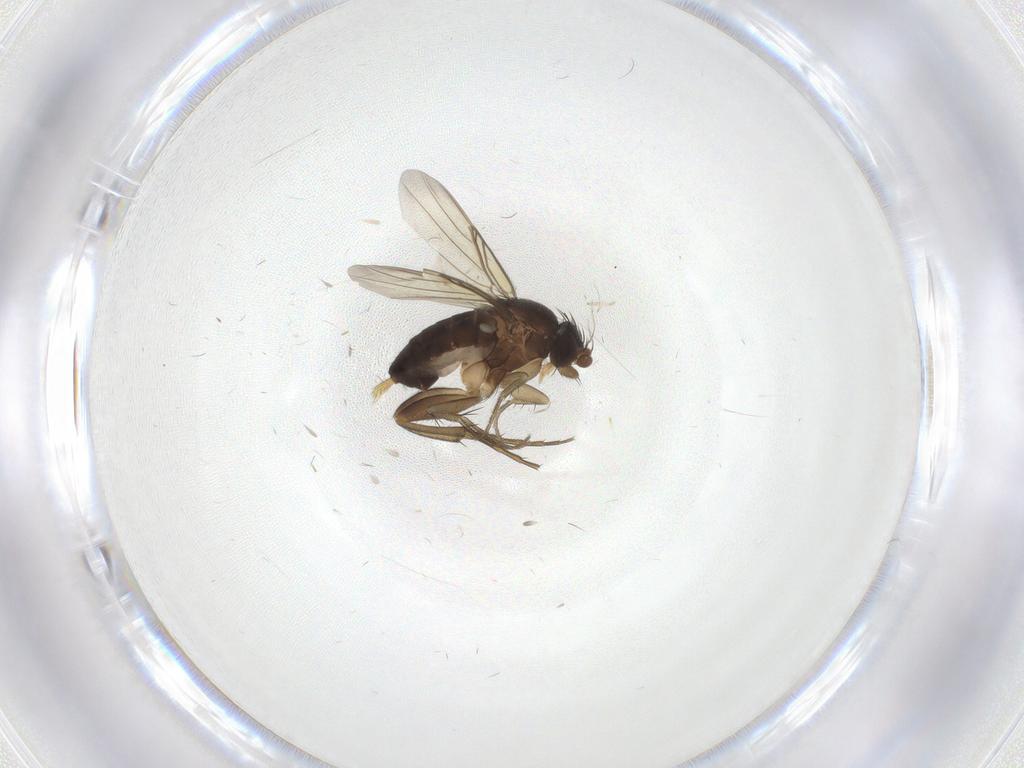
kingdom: Animalia
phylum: Arthropoda
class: Insecta
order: Diptera
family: Phoridae
